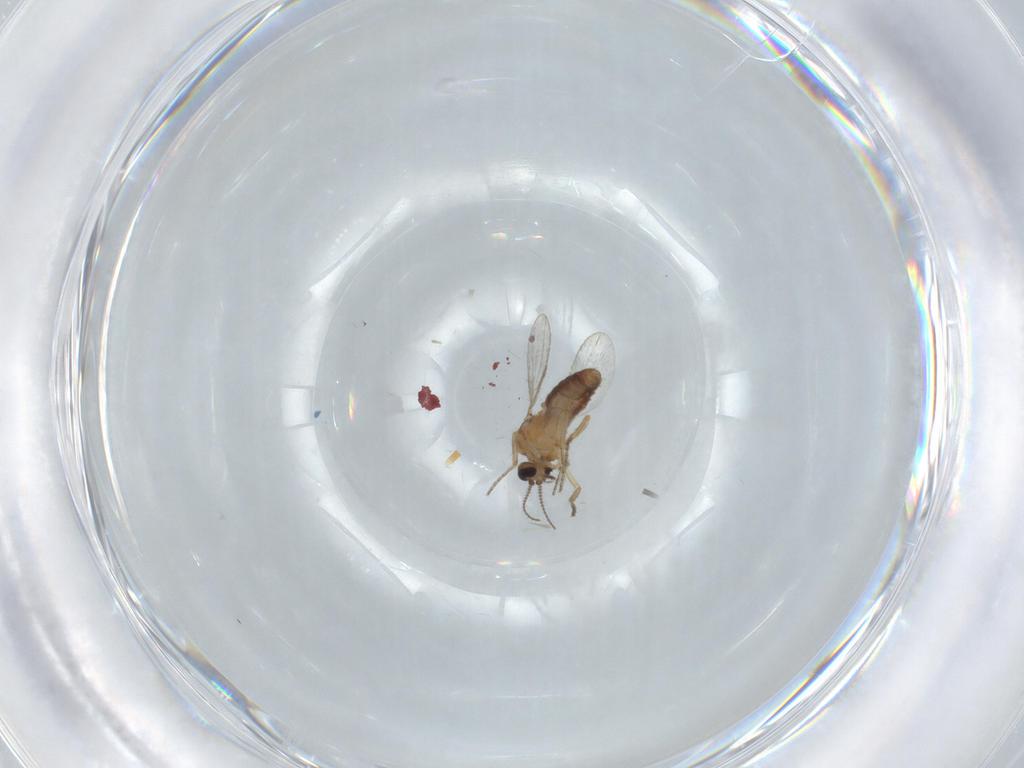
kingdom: Animalia
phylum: Arthropoda
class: Insecta
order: Diptera
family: Ceratopogonidae
